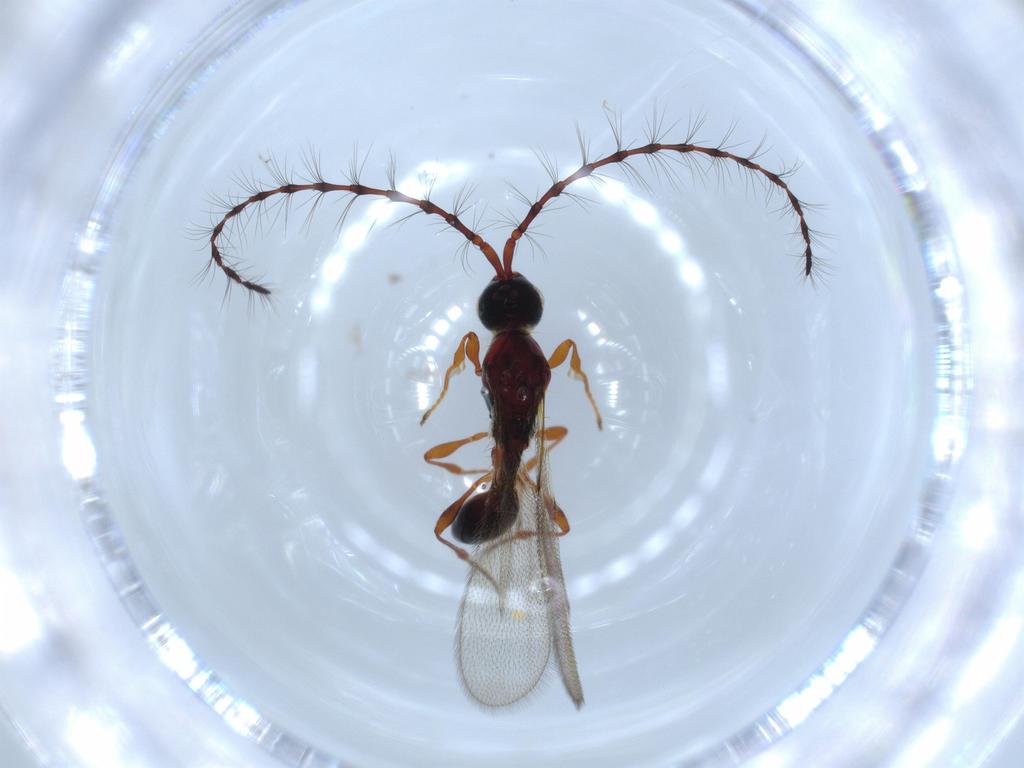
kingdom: Animalia
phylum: Arthropoda
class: Insecta
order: Hymenoptera
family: Diapriidae
